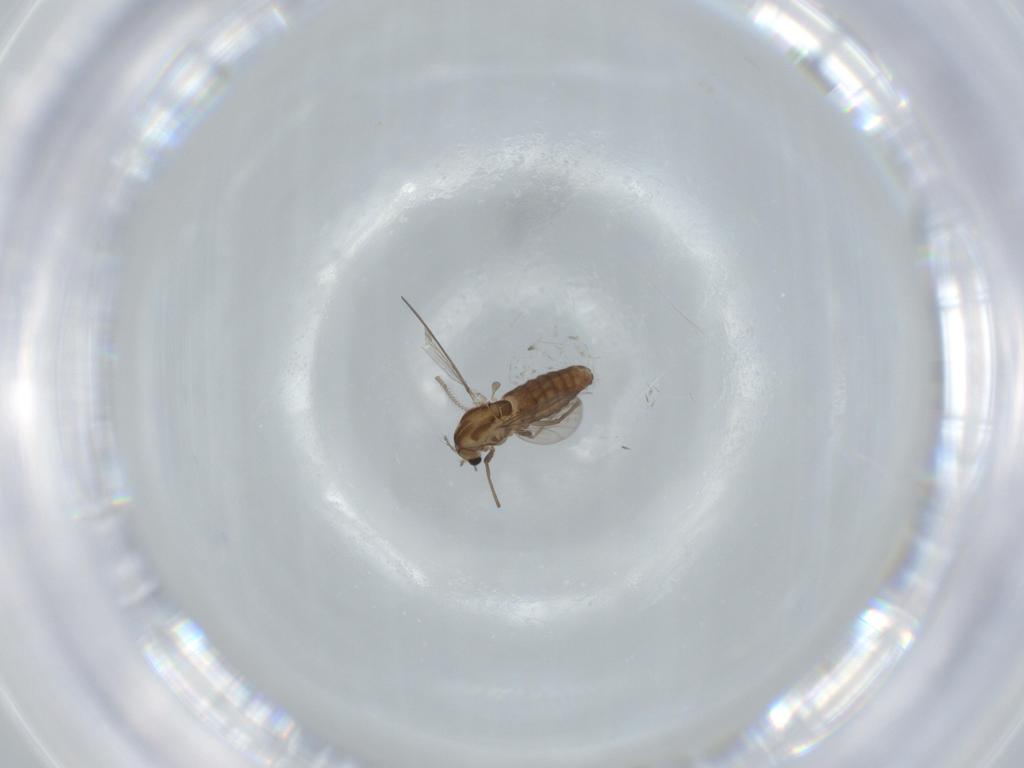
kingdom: Animalia
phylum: Arthropoda
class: Insecta
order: Diptera
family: Chironomidae
